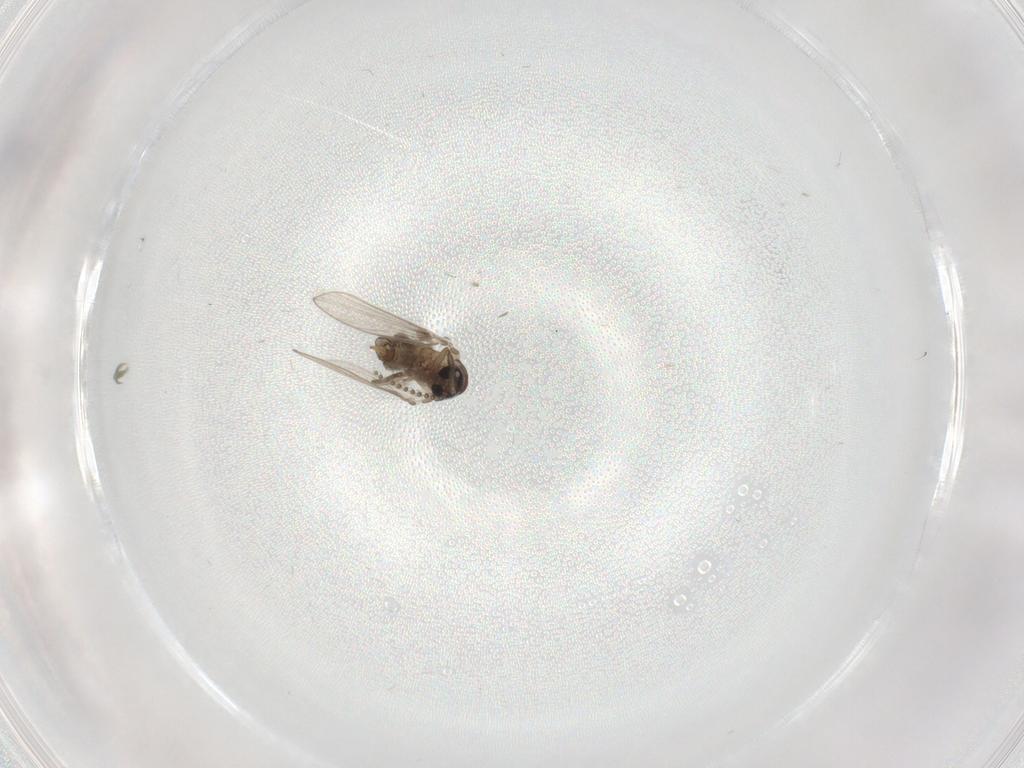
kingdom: Animalia
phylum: Arthropoda
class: Insecta
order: Diptera
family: Psychodidae
